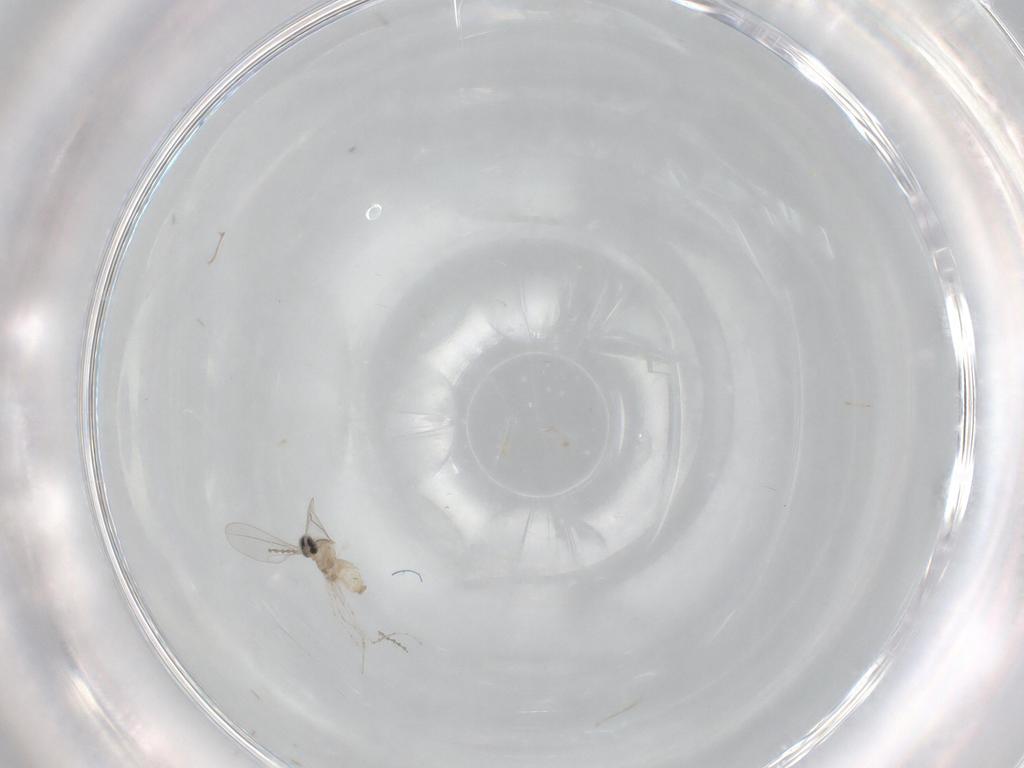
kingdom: Animalia
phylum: Arthropoda
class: Insecta
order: Diptera
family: Cecidomyiidae
